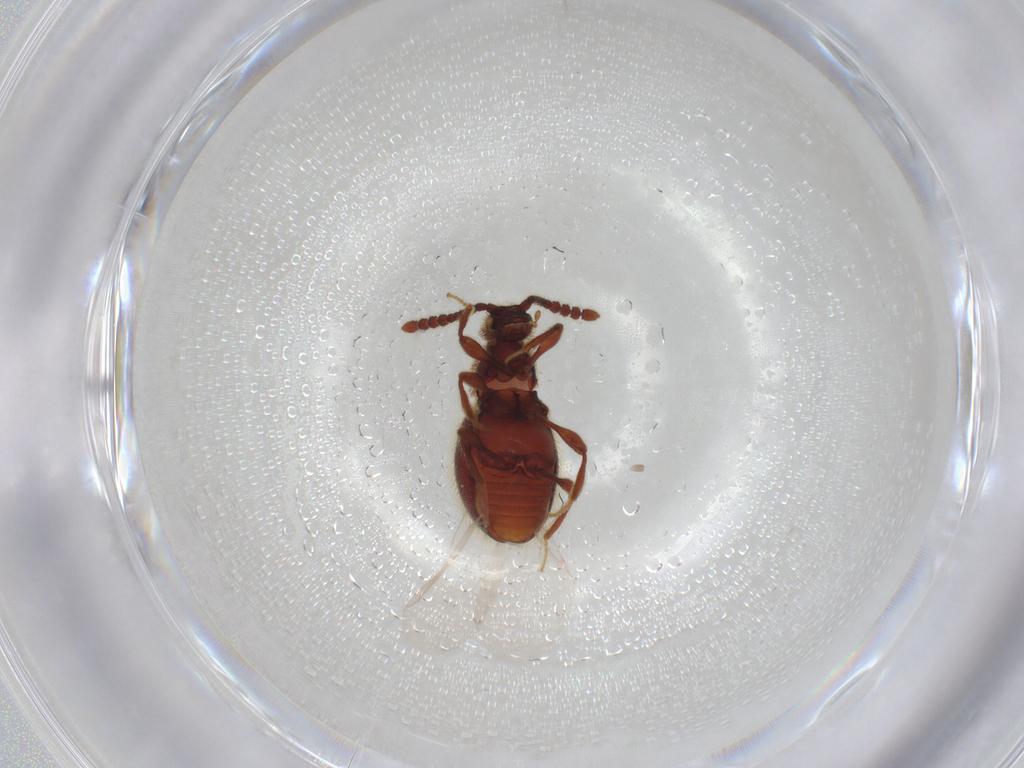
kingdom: Animalia
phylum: Arthropoda
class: Insecta
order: Coleoptera
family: Staphylinidae
